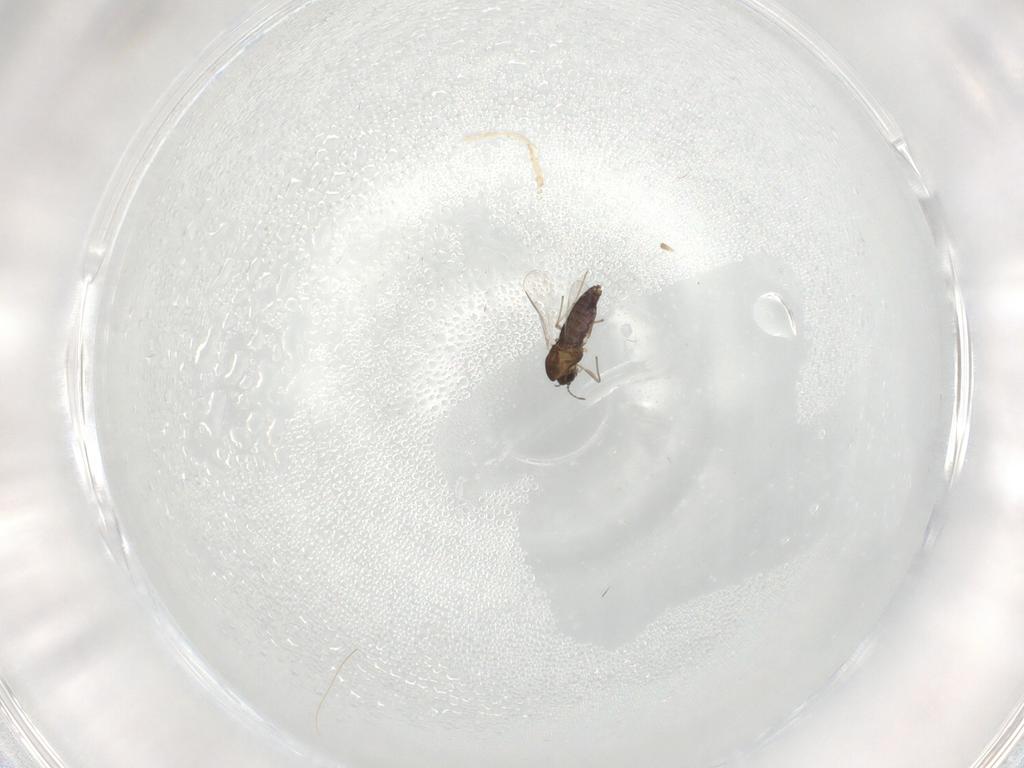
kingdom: Animalia
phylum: Arthropoda
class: Insecta
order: Diptera
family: Chironomidae
